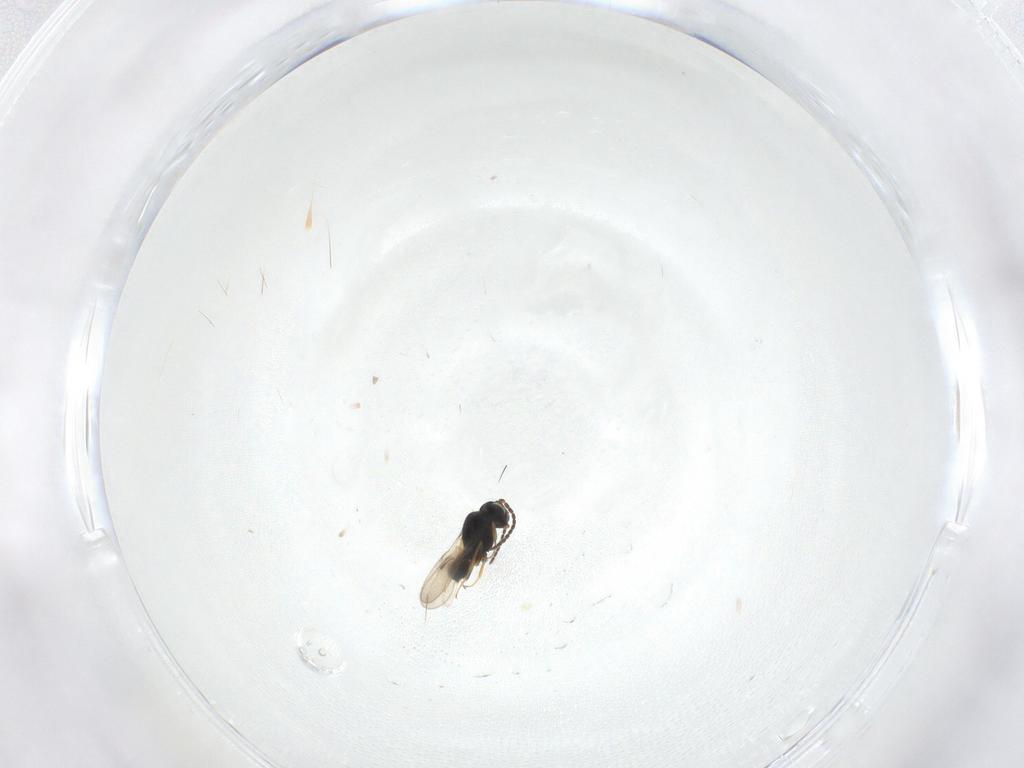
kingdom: Animalia
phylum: Arthropoda
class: Insecta
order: Hymenoptera
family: Scelionidae
